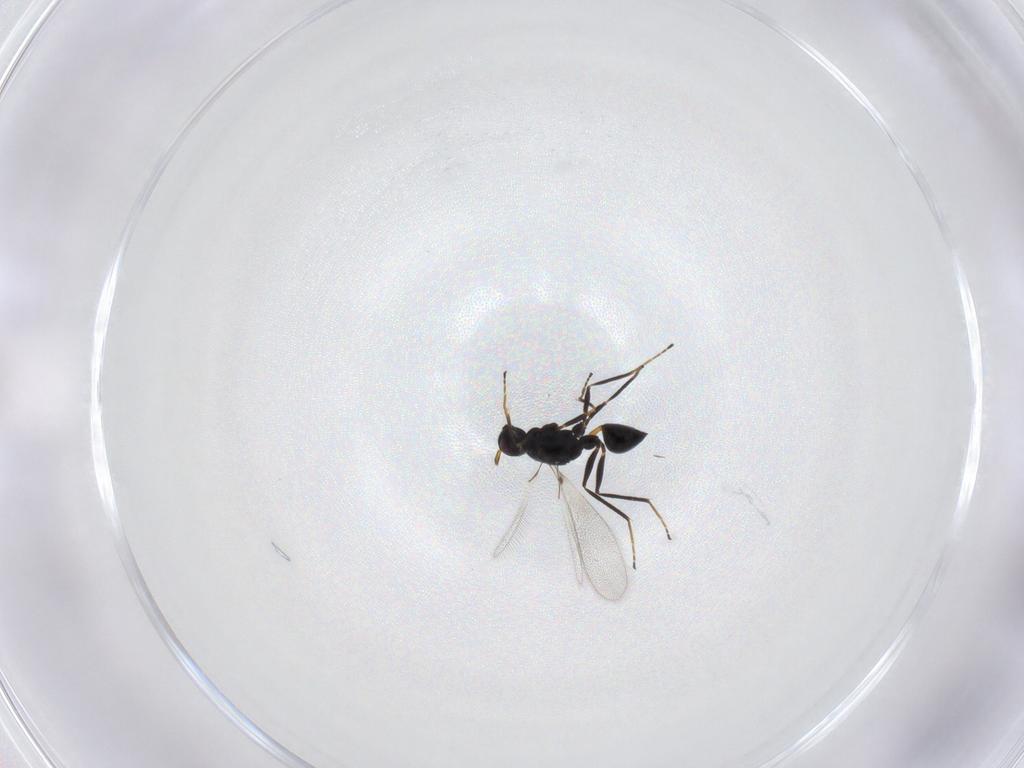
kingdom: Animalia
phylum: Arthropoda
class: Insecta
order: Hymenoptera
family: Mymaridae
